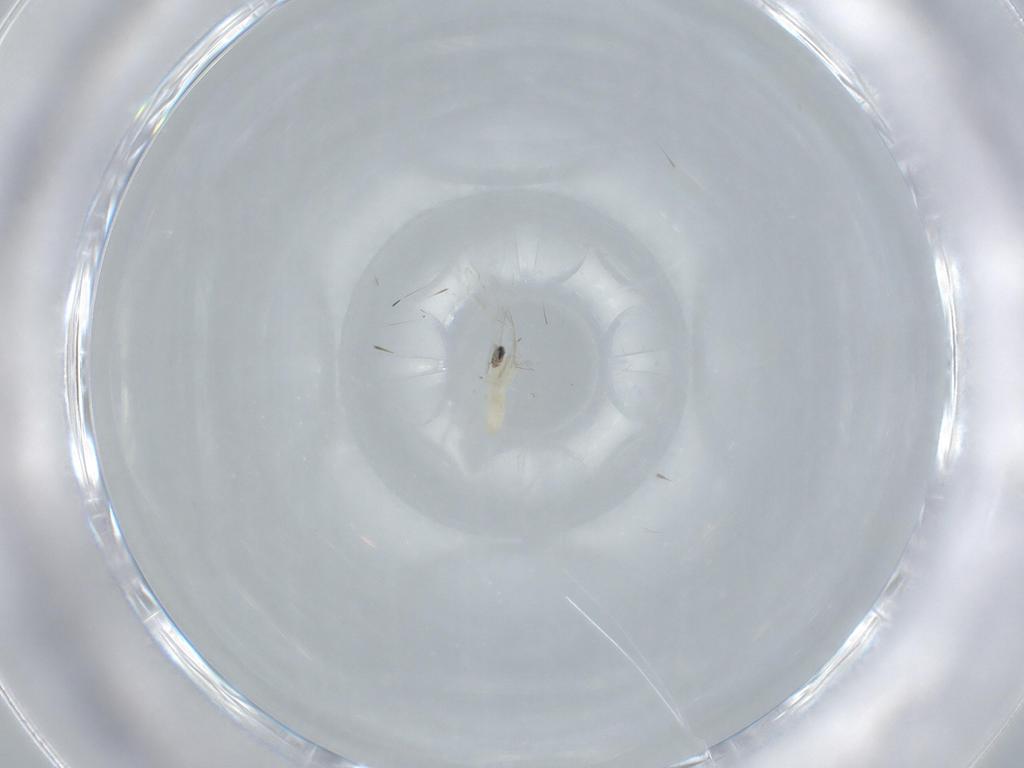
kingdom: Animalia
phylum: Arthropoda
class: Insecta
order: Diptera
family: Cecidomyiidae
